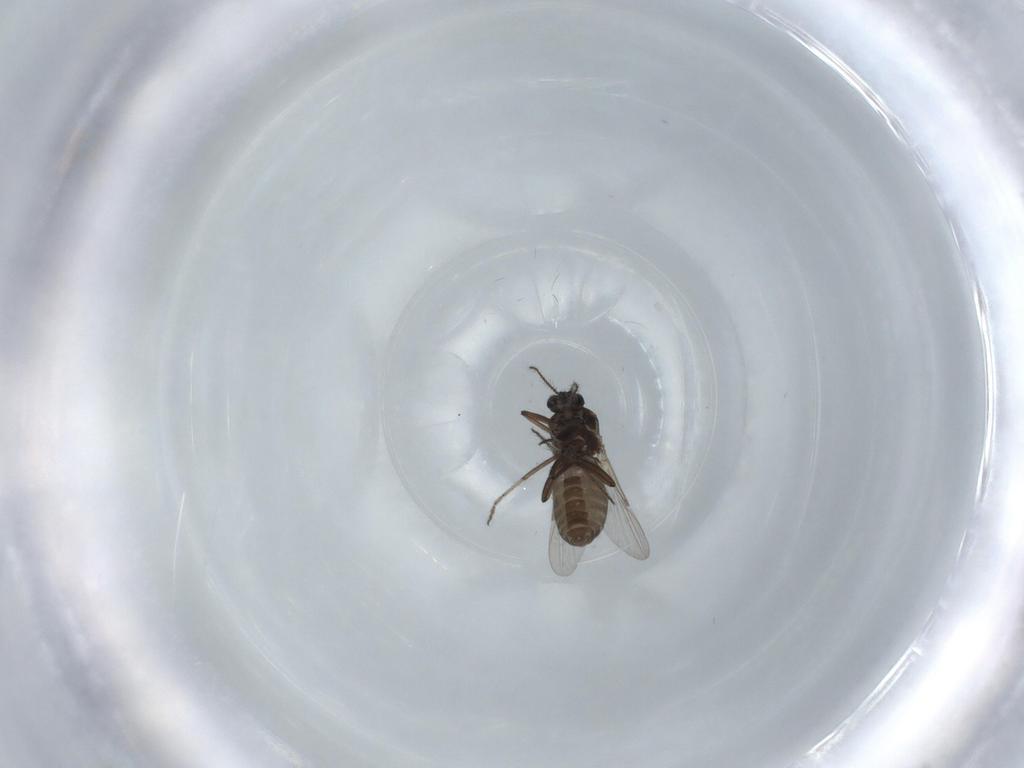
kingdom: Animalia
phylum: Arthropoda
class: Insecta
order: Diptera
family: Ceratopogonidae
